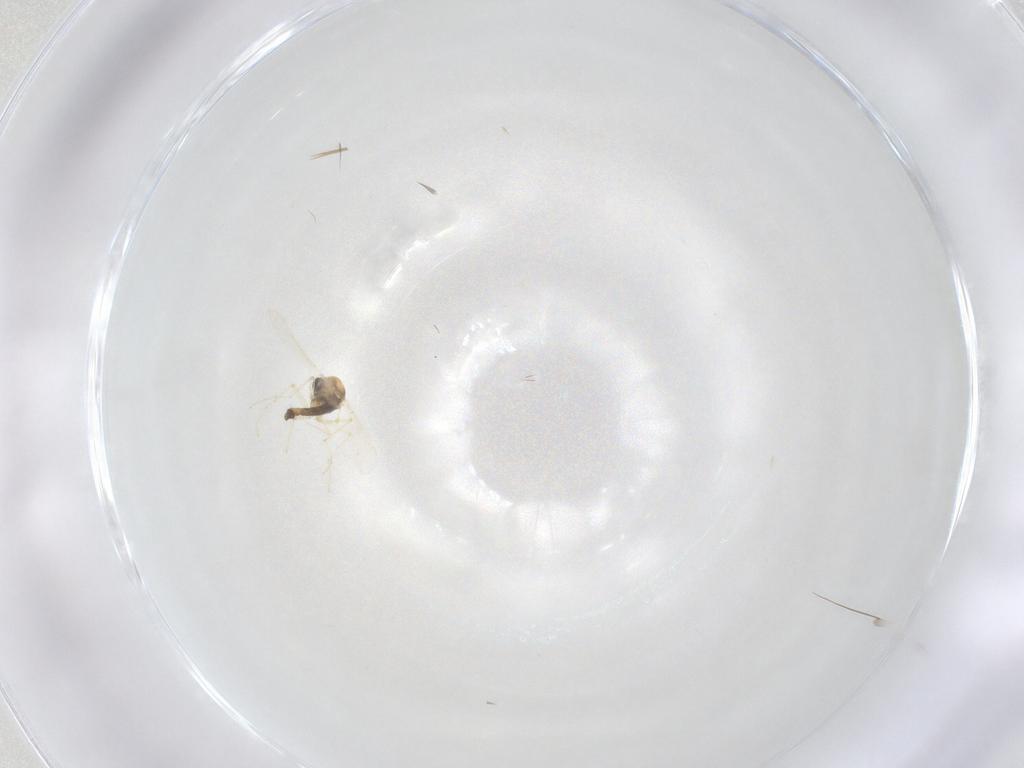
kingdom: Animalia
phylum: Arthropoda
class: Insecta
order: Diptera
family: Chironomidae
